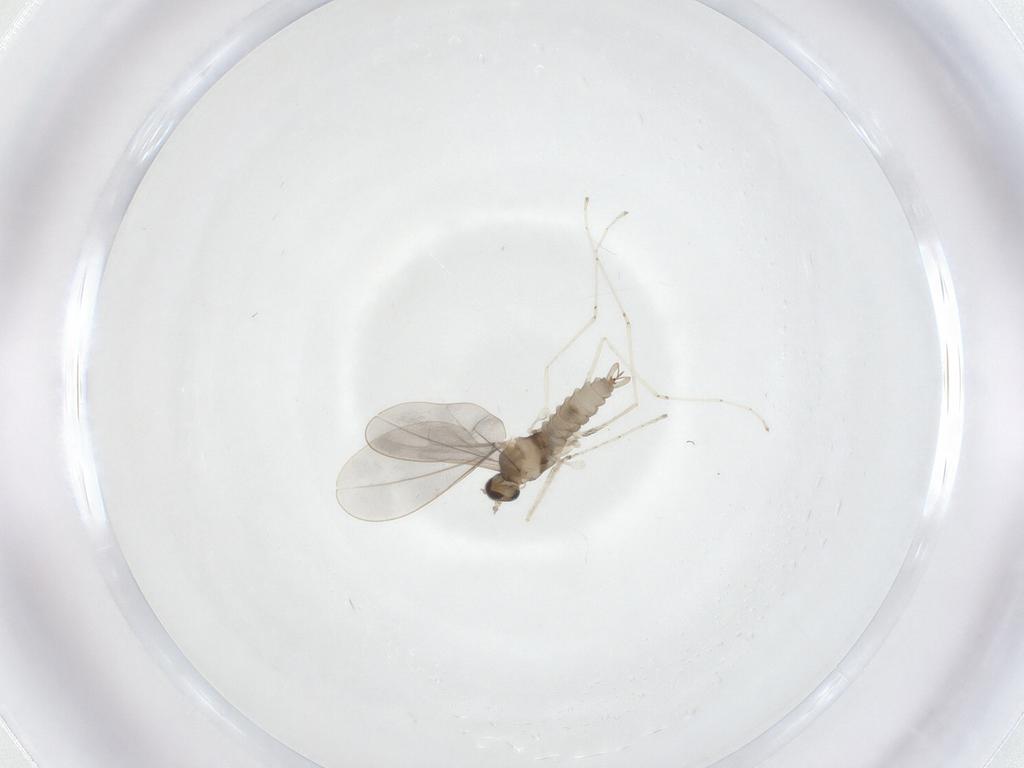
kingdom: Animalia
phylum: Arthropoda
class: Insecta
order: Diptera
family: Cecidomyiidae
